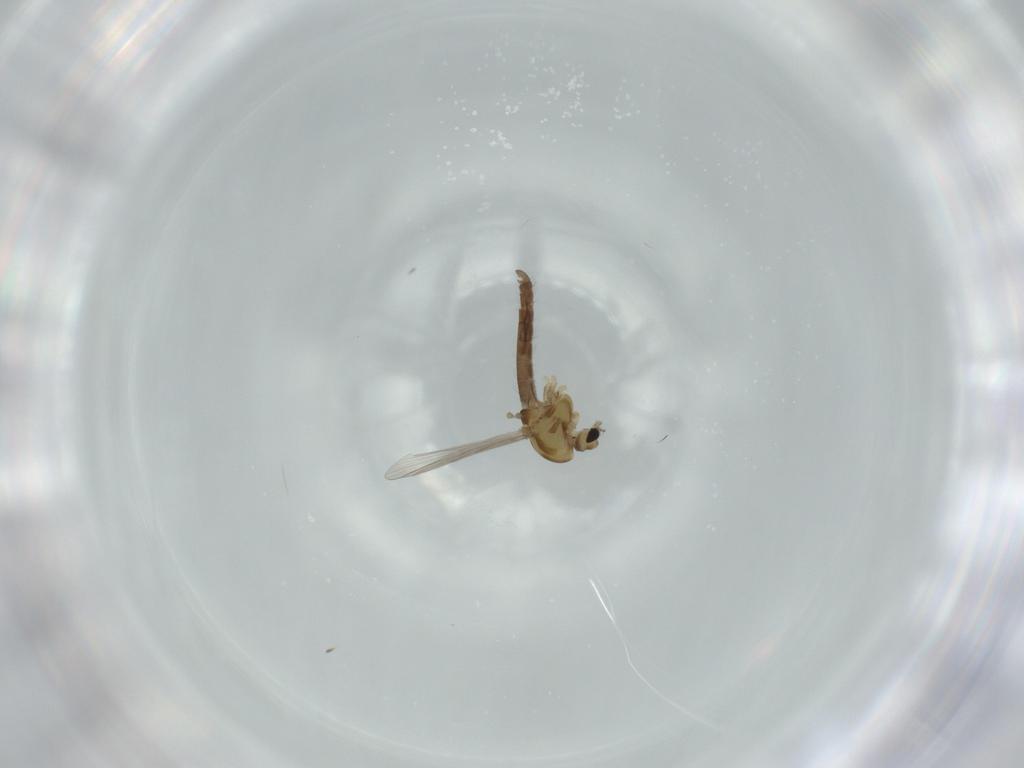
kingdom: Animalia
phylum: Arthropoda
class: Insecta
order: Diptera
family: Chironomidae
